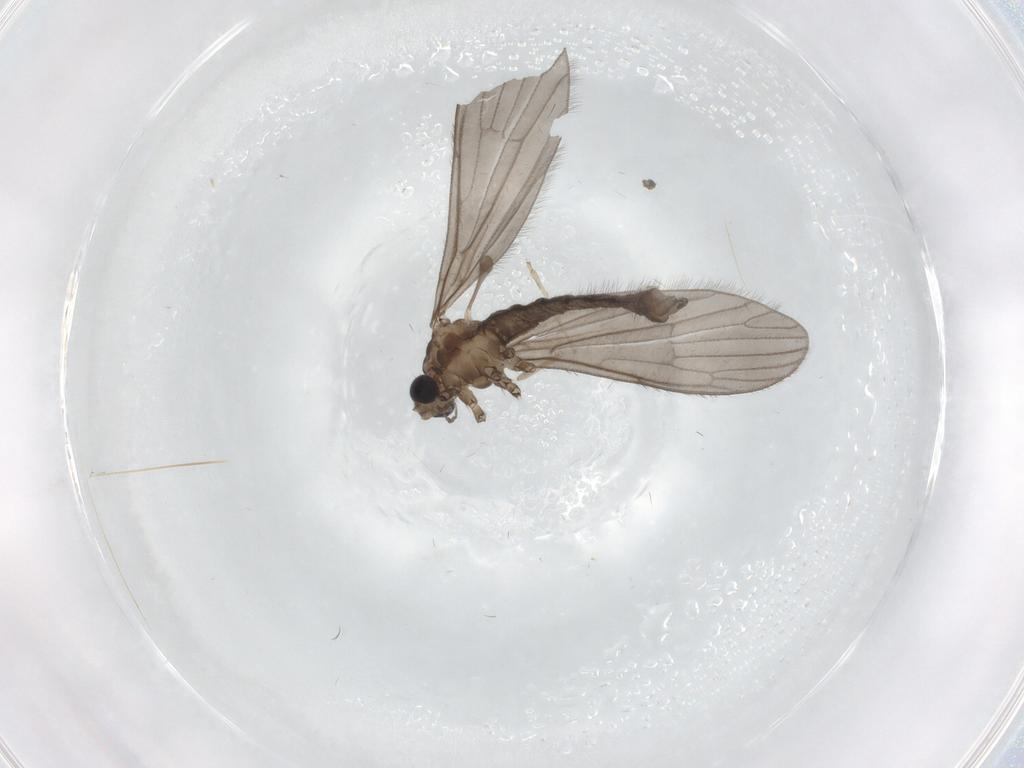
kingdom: Animalia
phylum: Arthropoda
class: Insecta
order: Diptera
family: Limoniidae
